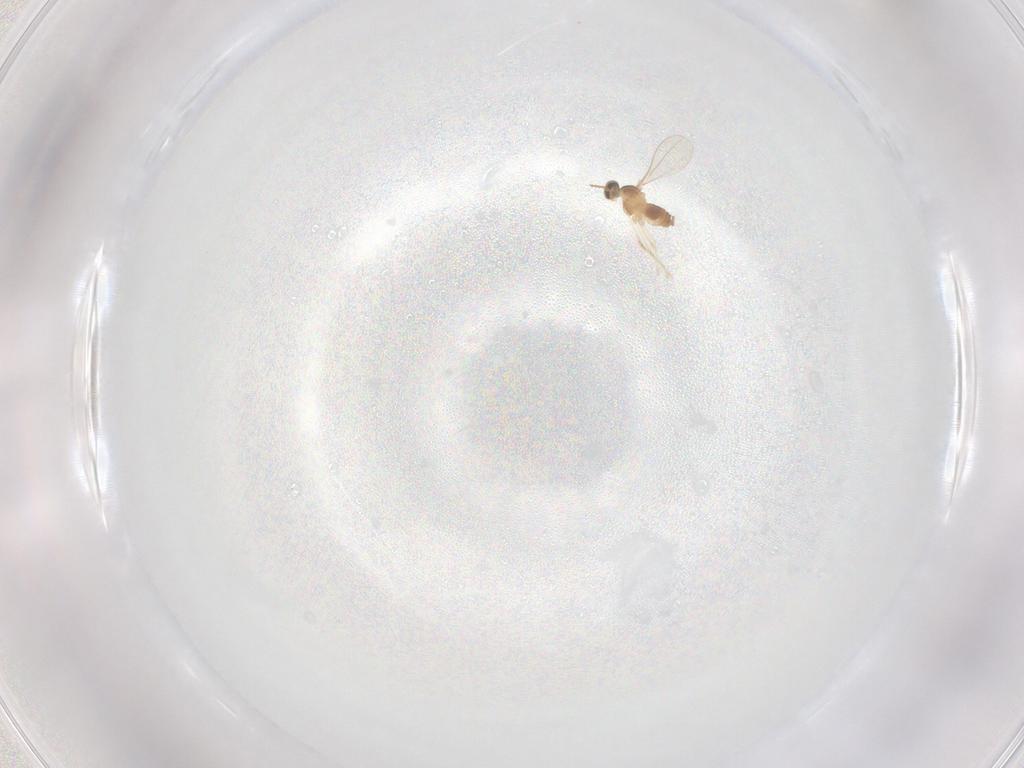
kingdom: Animalia
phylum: Arthropoda
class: Insecta
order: Diptera
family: Cecidomyiidae
